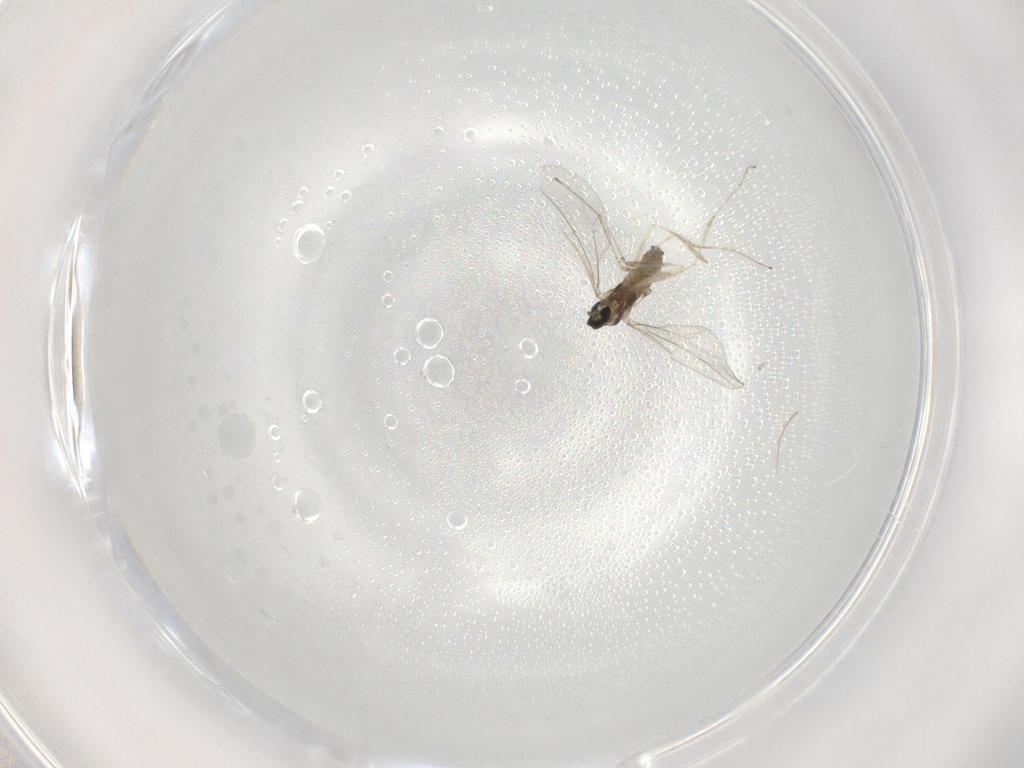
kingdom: Animalia
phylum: Arthropoda
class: Insecta
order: Diptera
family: Cecidomyiidae
